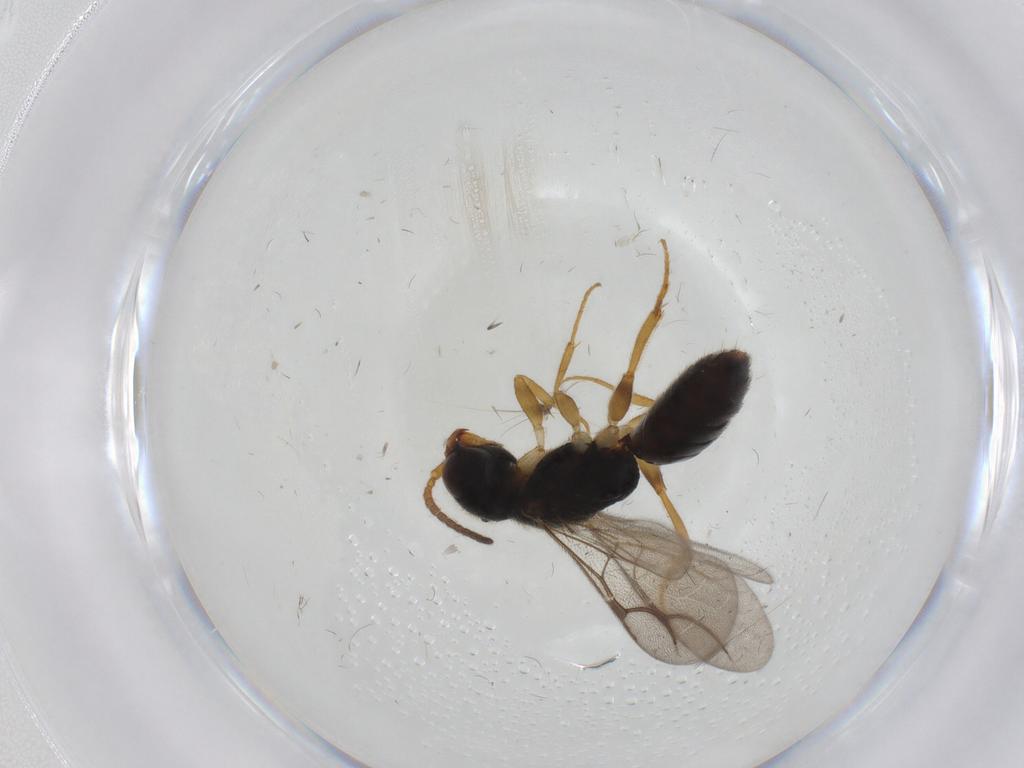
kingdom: Animalia
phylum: Arthropoda
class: Insecta
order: Hymenoptera
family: Bethylidae
